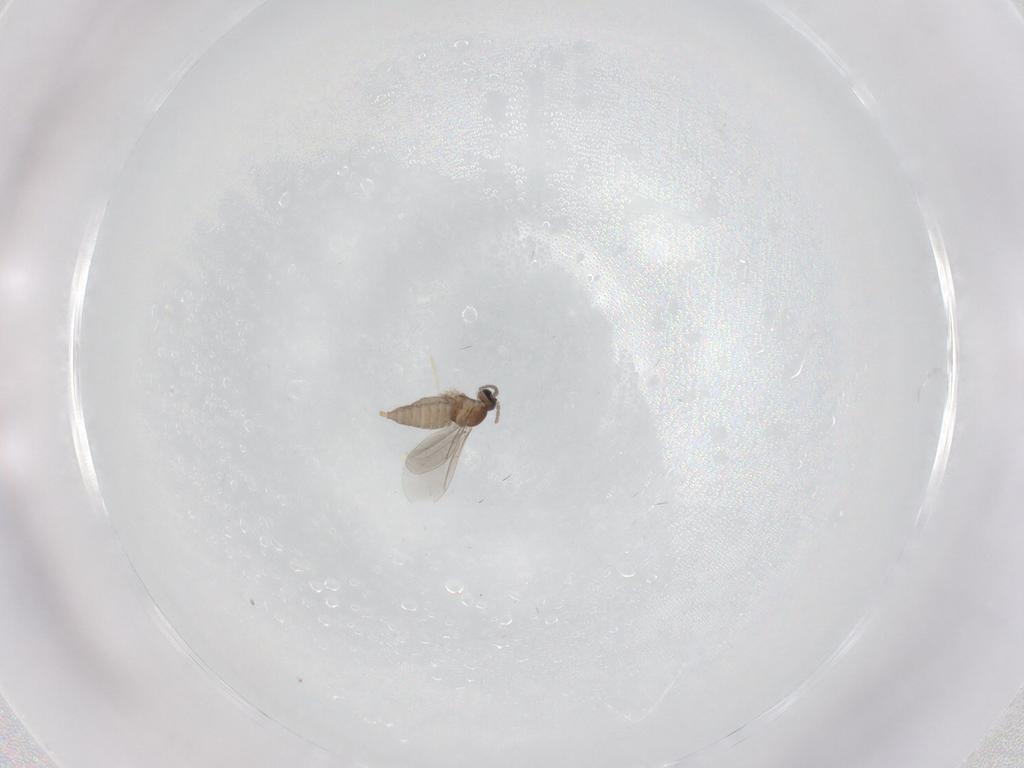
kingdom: Animalia
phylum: Arthropoda
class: Insecta
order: Diptera
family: Cecidomyiidae
